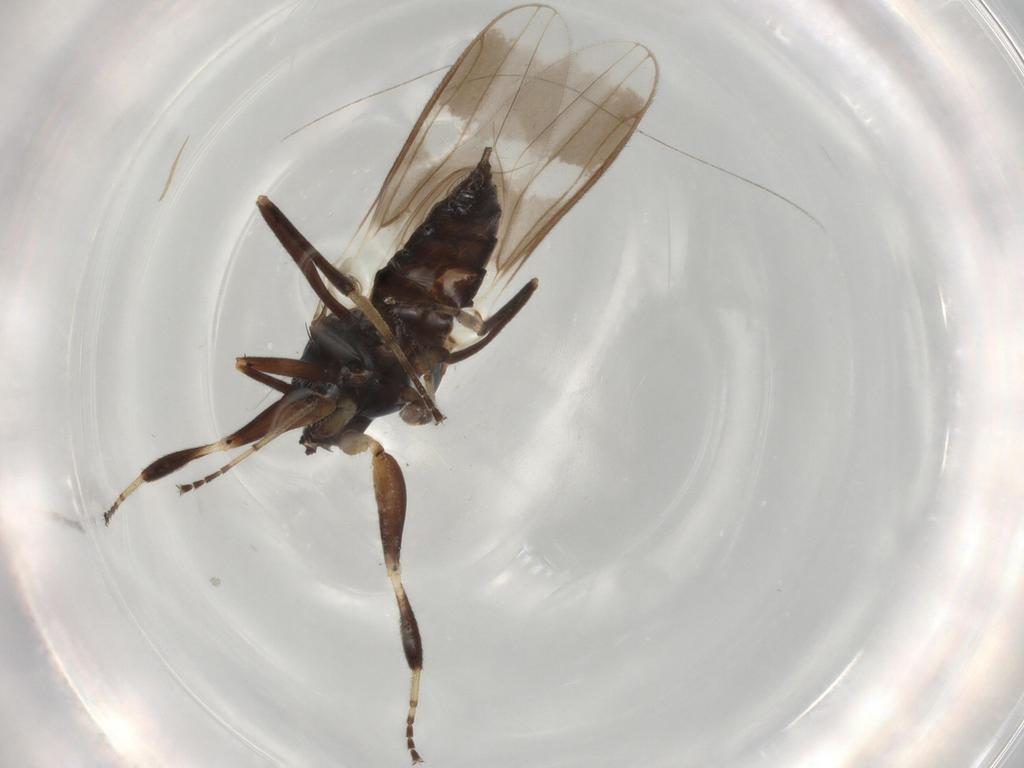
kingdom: Animalia
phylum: Arthropoda
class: Insecta
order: Diptera
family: Hybotidae
